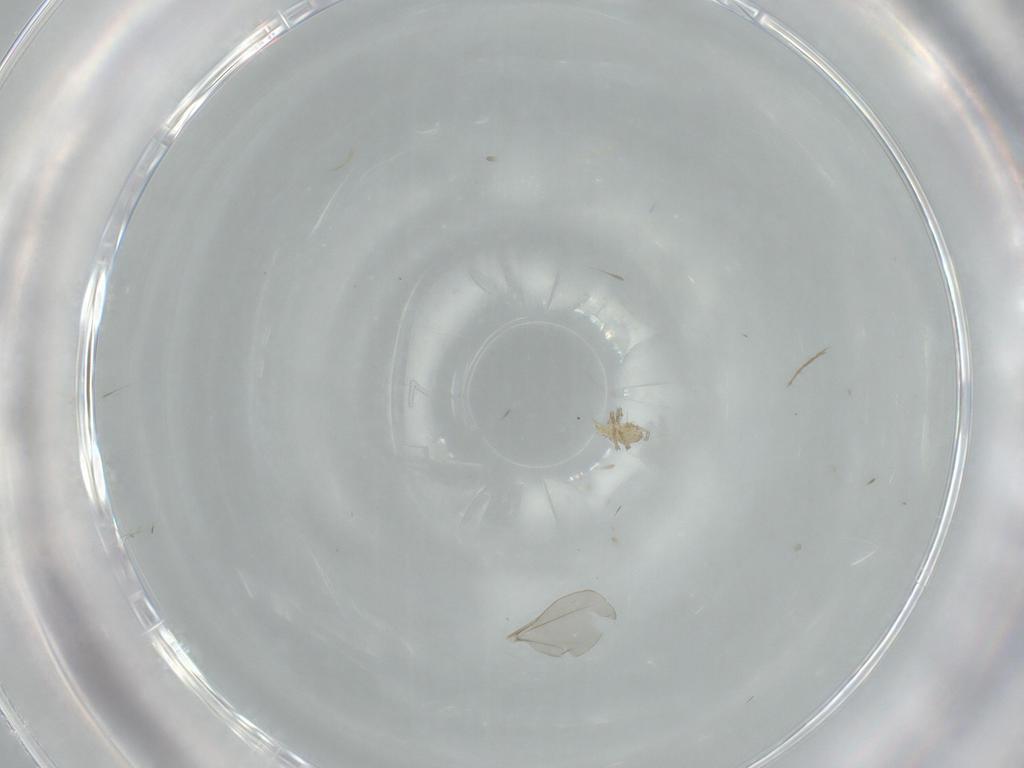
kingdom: Animalia
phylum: Arthropoda
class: Arachnida
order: Trombidiformes
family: Erythraeidae
